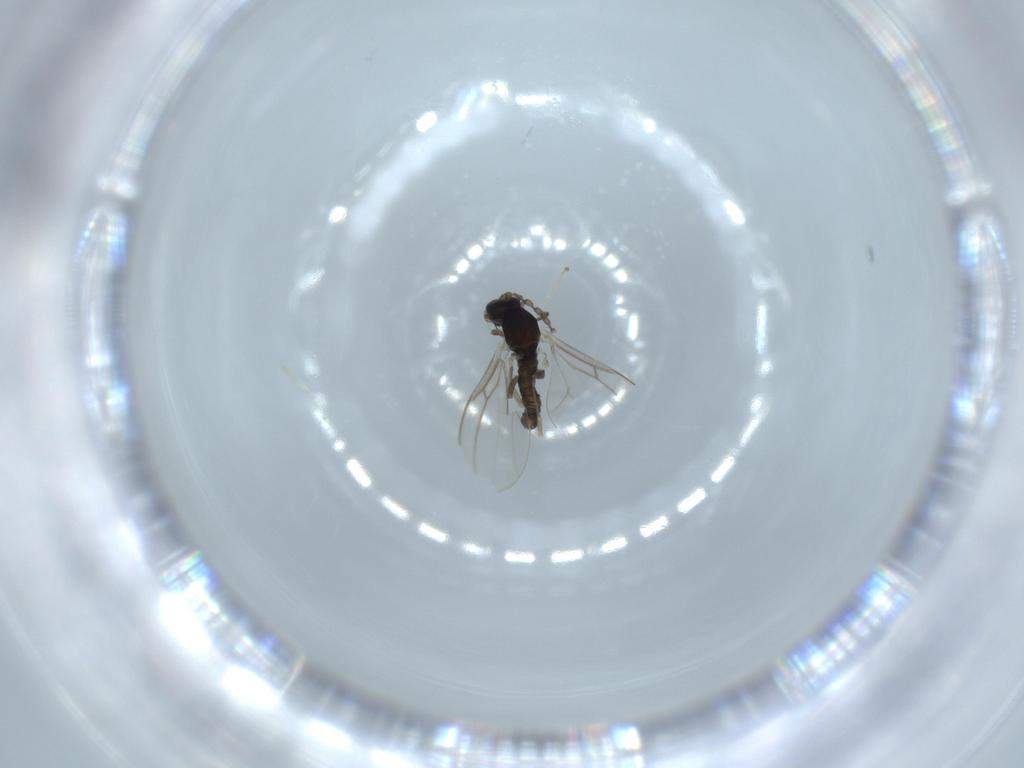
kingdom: Animalia
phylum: Arthropoda
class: Insecta
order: Diptera
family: Cecidomyiidae
